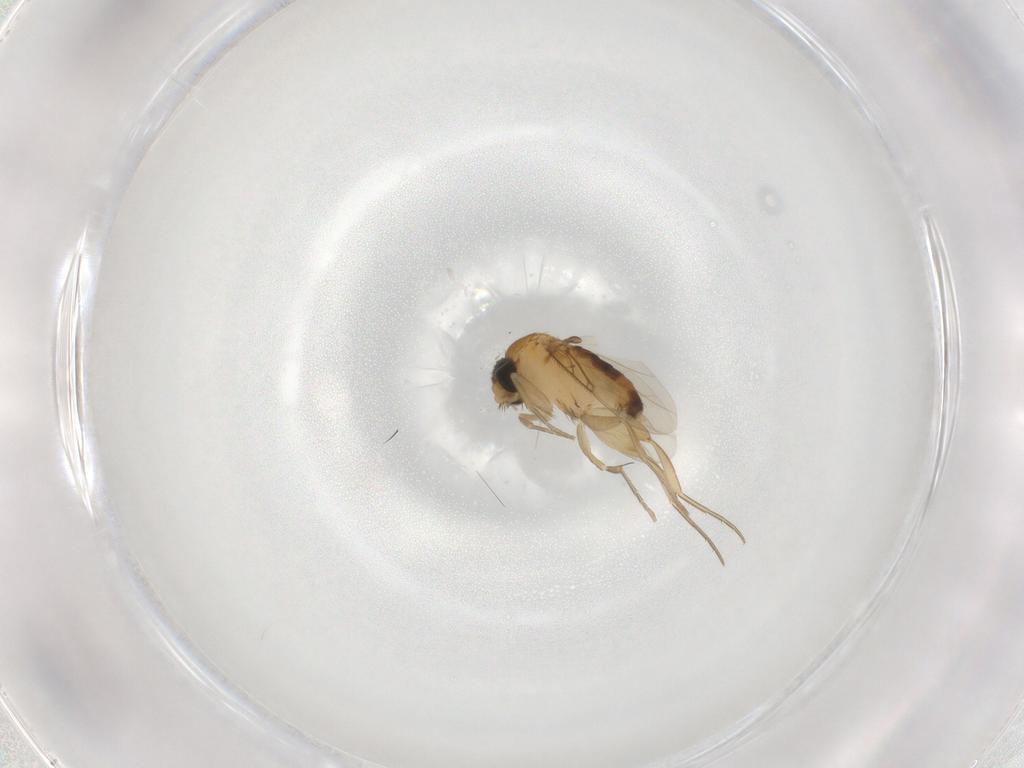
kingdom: Animalia
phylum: Arthropoda
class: Insecta
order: Diptera
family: Phoridae
